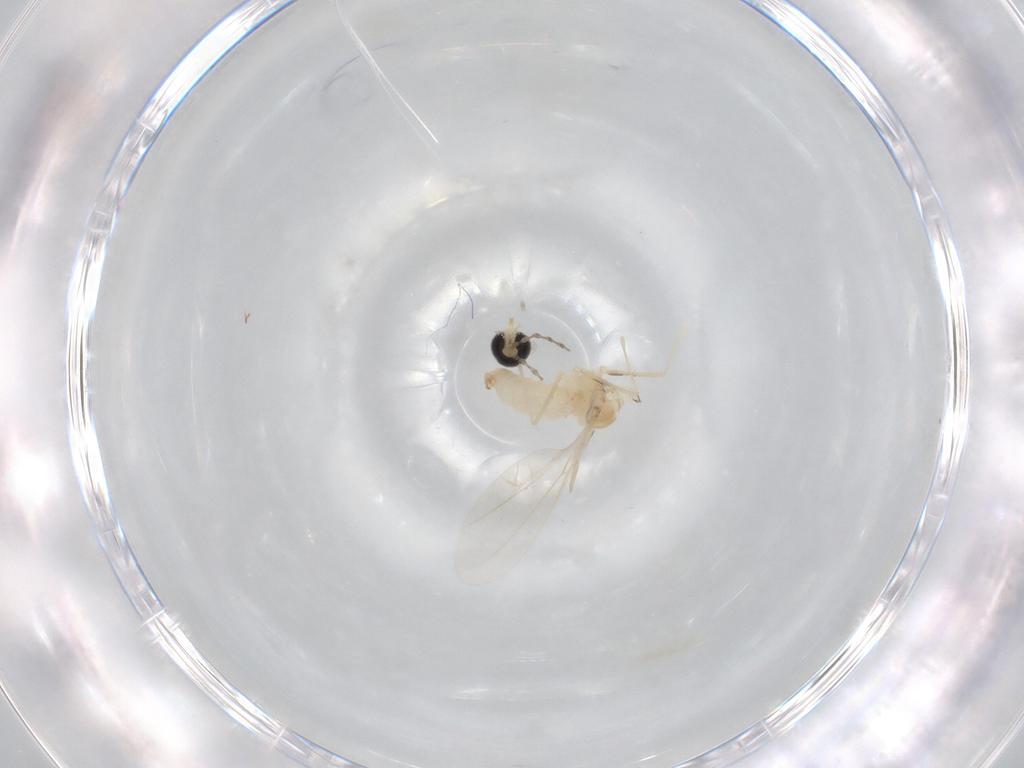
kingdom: Animalia
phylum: Arthropoda
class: Insecta
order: Diptera
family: Cecidomyiidae
